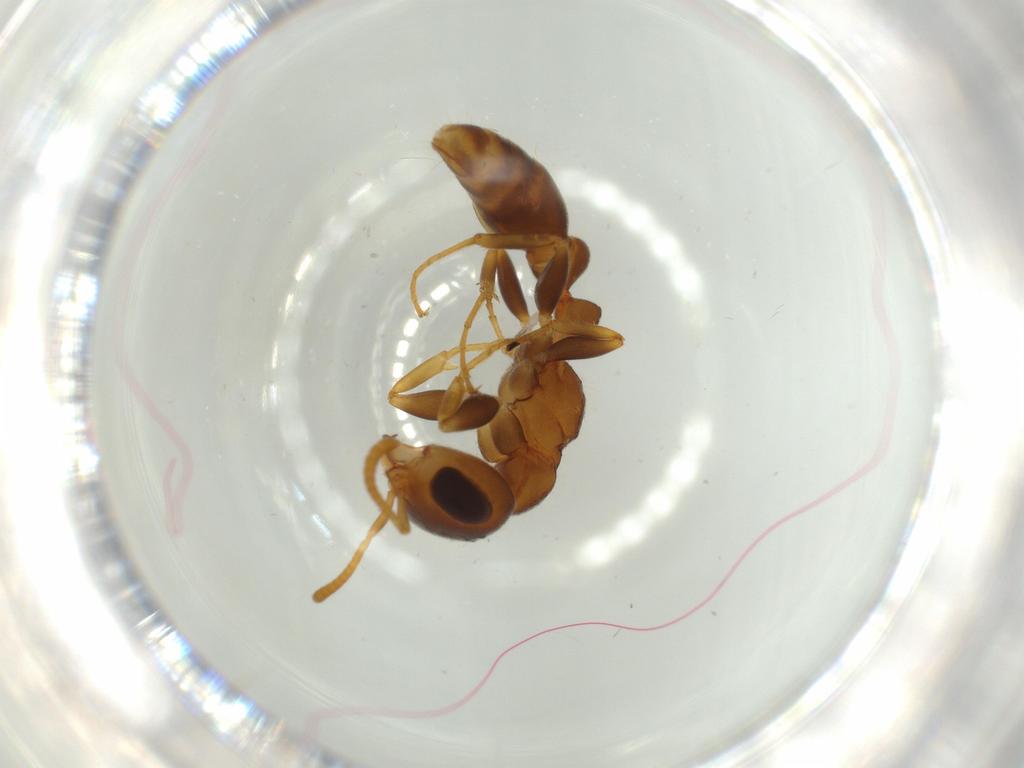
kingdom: Animalia
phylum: Arthropoda
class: Insecta
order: Hymenoptera
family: Formicidae
